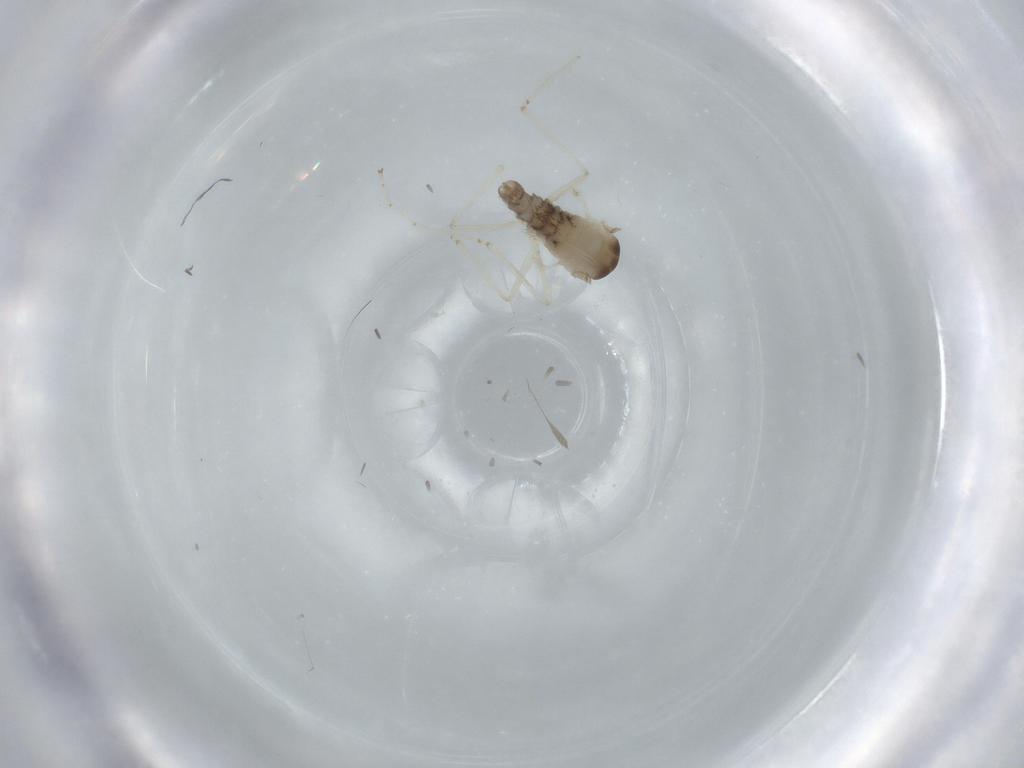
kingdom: Animalia
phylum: Arthropoda
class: Insecta
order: Diptera
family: Cecidomyiidae
